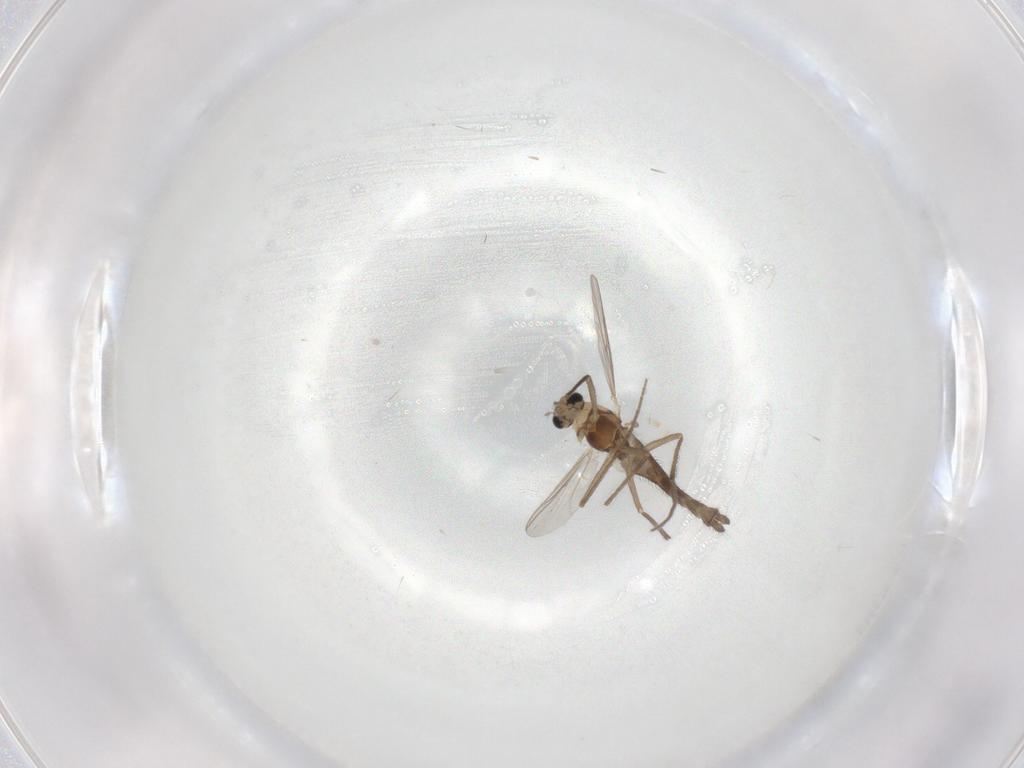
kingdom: Animalia
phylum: Arthropoda
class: Insecta
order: Diptera
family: Chironomidae
